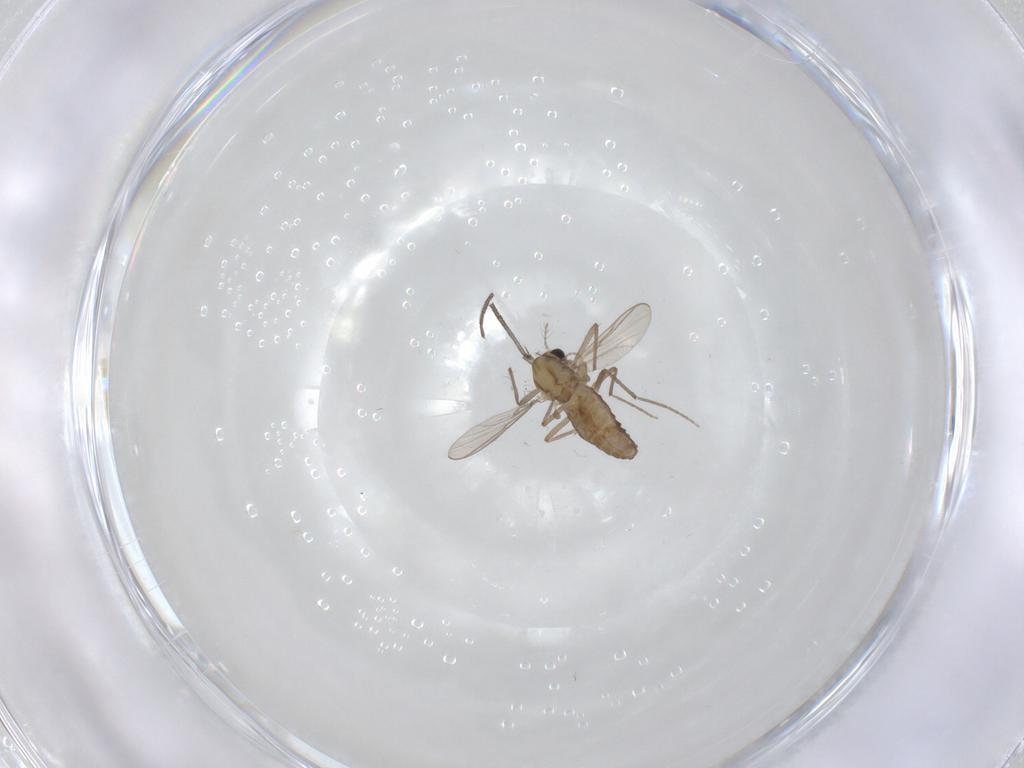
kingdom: Animalia
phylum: Arthropoda
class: Insecta
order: Diptera
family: Chironomidae
